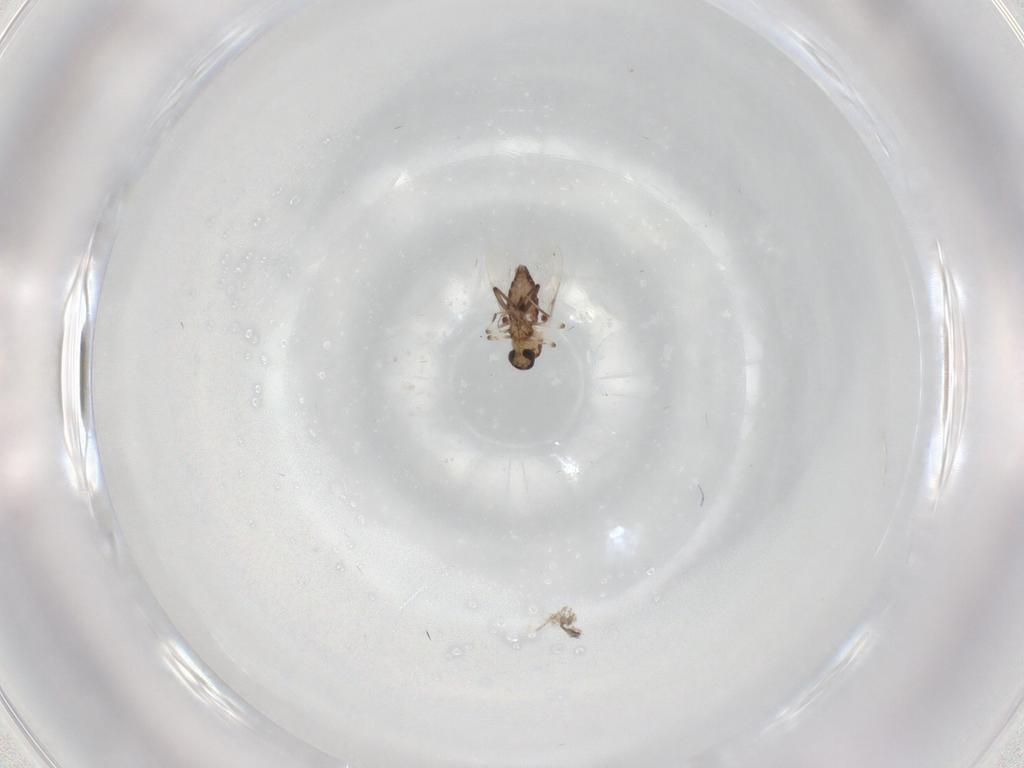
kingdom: Animalia
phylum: Arthropoda
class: Insecta
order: Diptera
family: Ceratopogonidae
